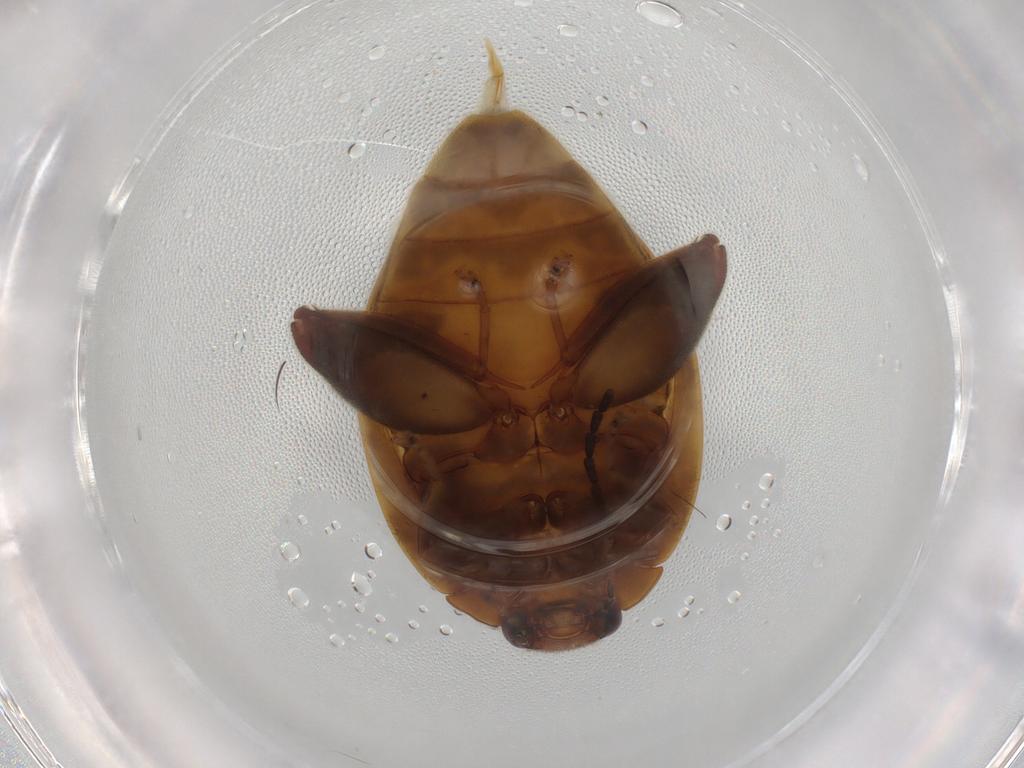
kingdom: Animalia
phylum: Arthropoda
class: Insecta
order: Coleoptera
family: Scirtidae
